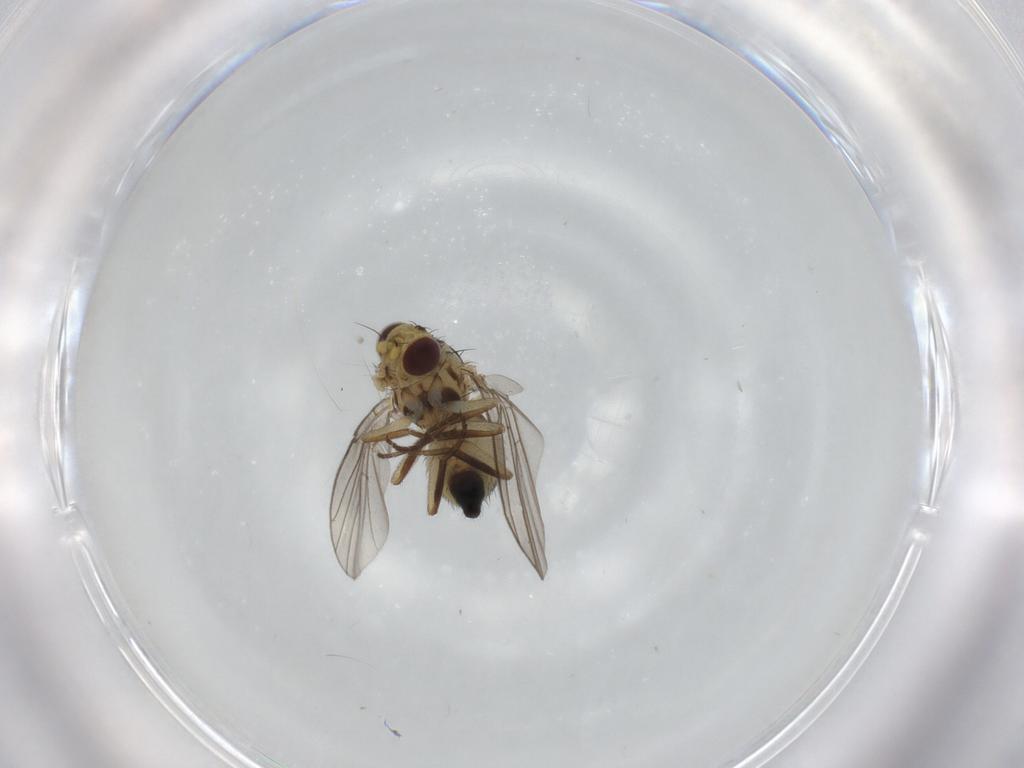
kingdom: Animalia
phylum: Arthropoda
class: Insecta
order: Diptera
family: Agromyzidae
